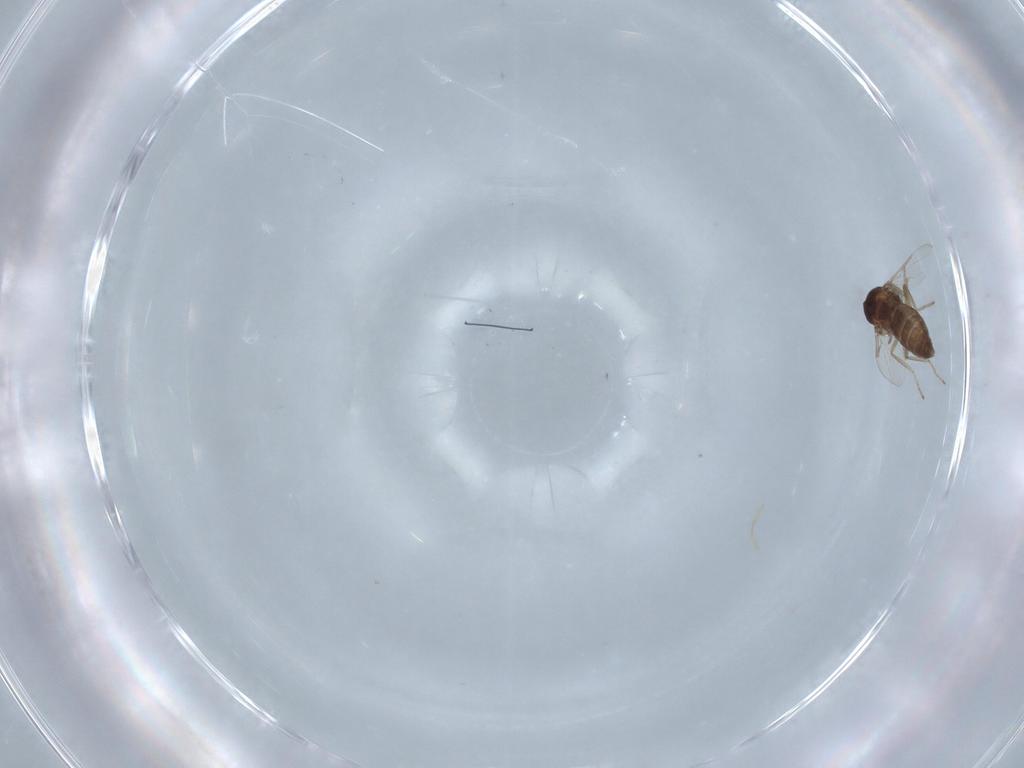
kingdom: Animalia
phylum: Arthropoda
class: Insecta
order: Diptera
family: Ceratopogonidae
